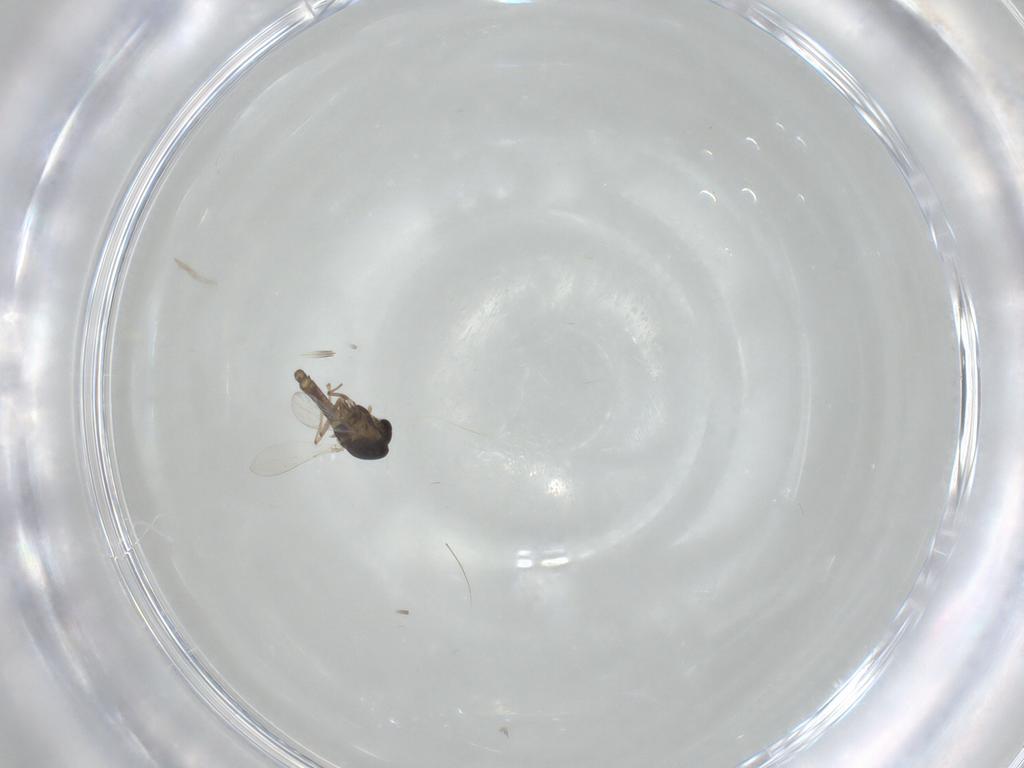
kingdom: Animalia
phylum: Arthropoda
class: Insecta
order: Diptera
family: Chironomidae
